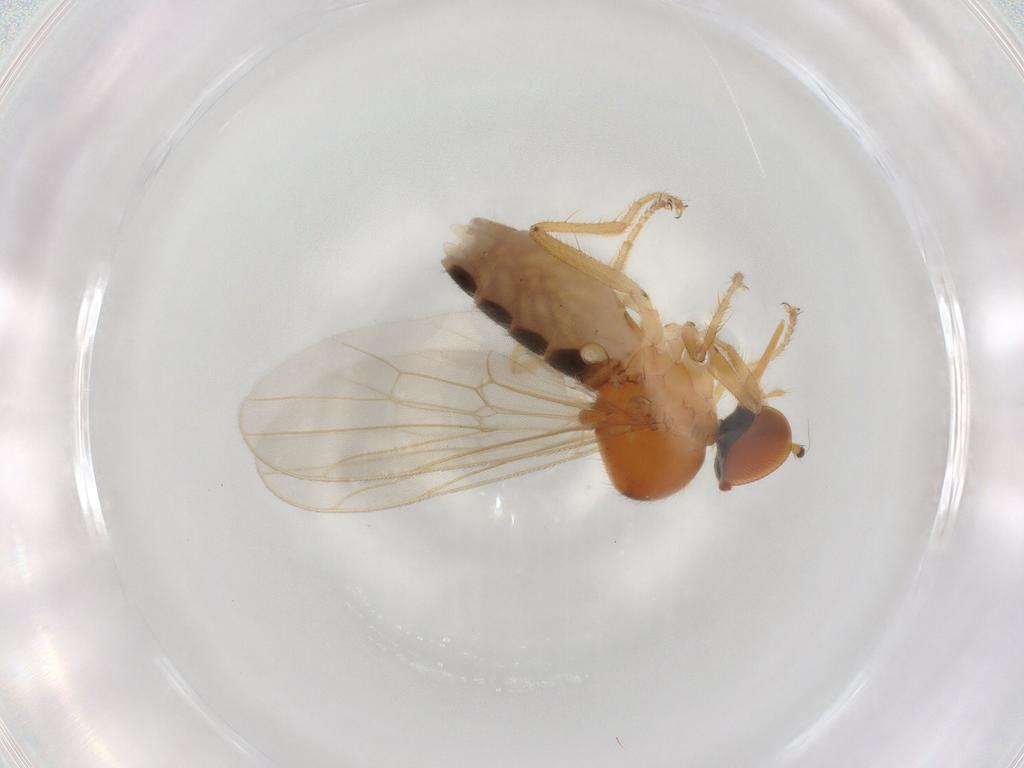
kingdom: Animalia
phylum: Arthropoda
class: Insecta
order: Diptera
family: Hybotidae
